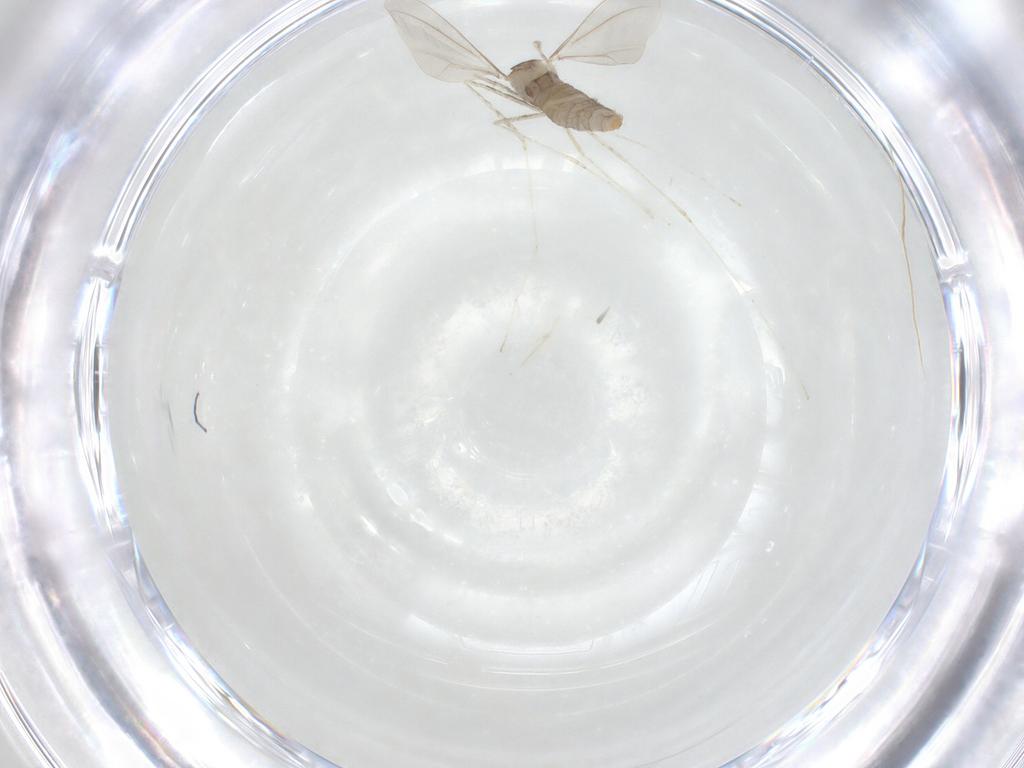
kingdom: Animalia
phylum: Arthropoda
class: Insecta
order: Diptera
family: Cecidomyiidae
